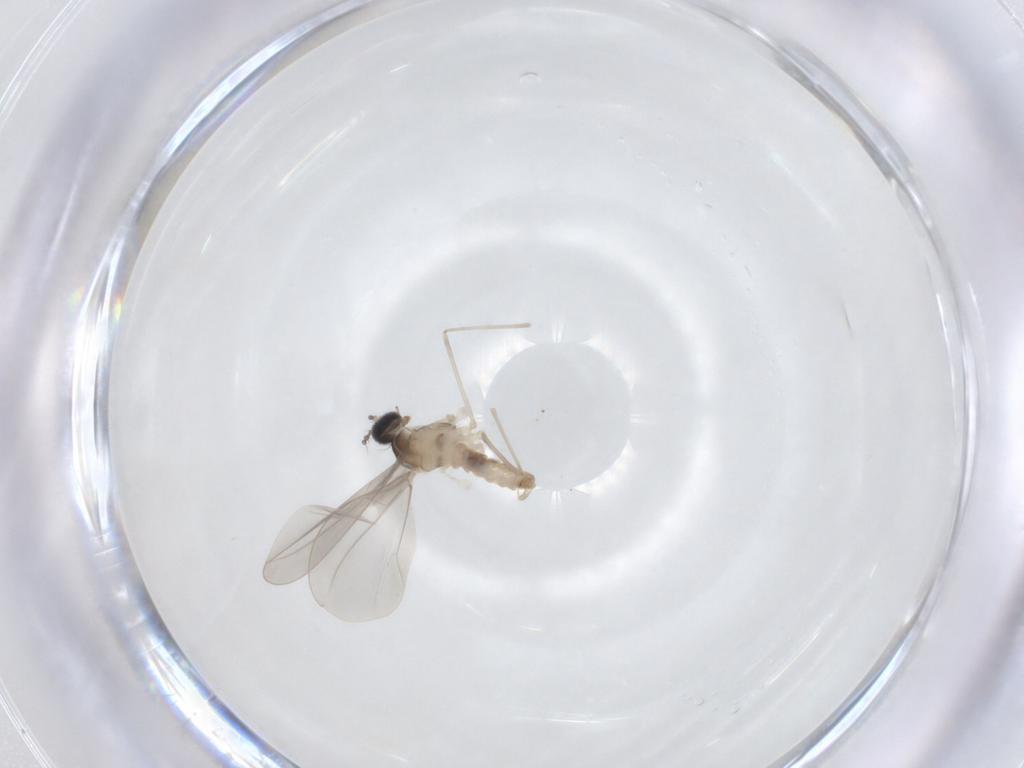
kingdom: Animalia
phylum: Arthropoda
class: Insecta
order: Diptera
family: Cecidomyiidae
